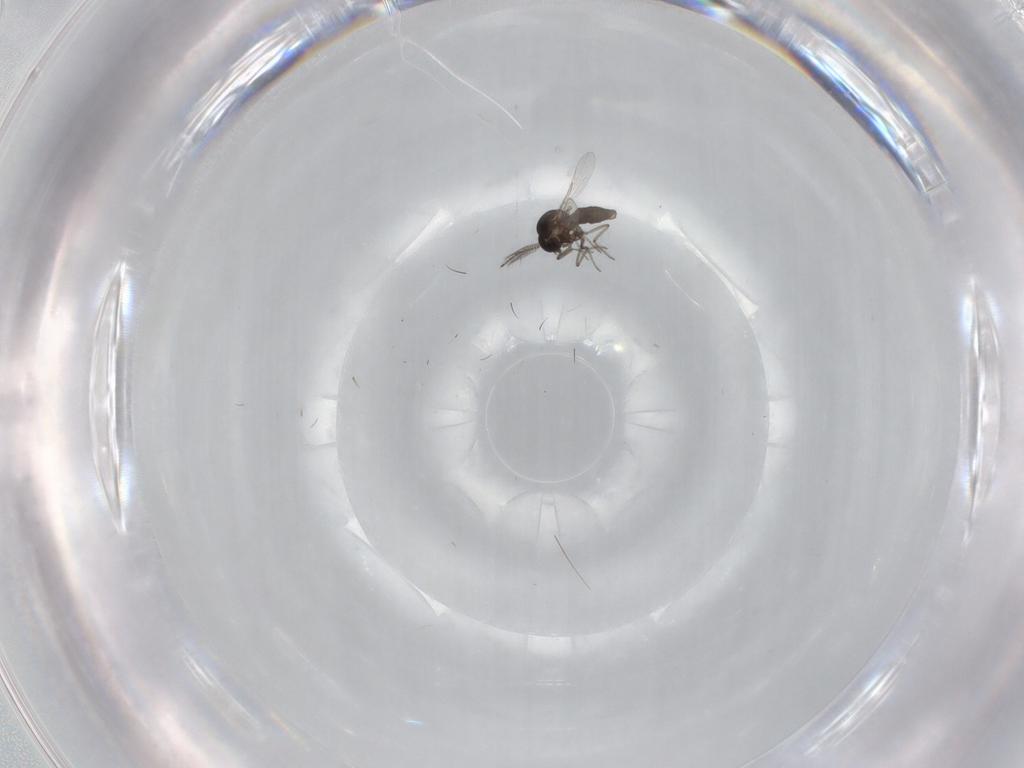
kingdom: Animalia
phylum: Arthropoda
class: Insecta
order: Diptera
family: Ceratopogonidae
